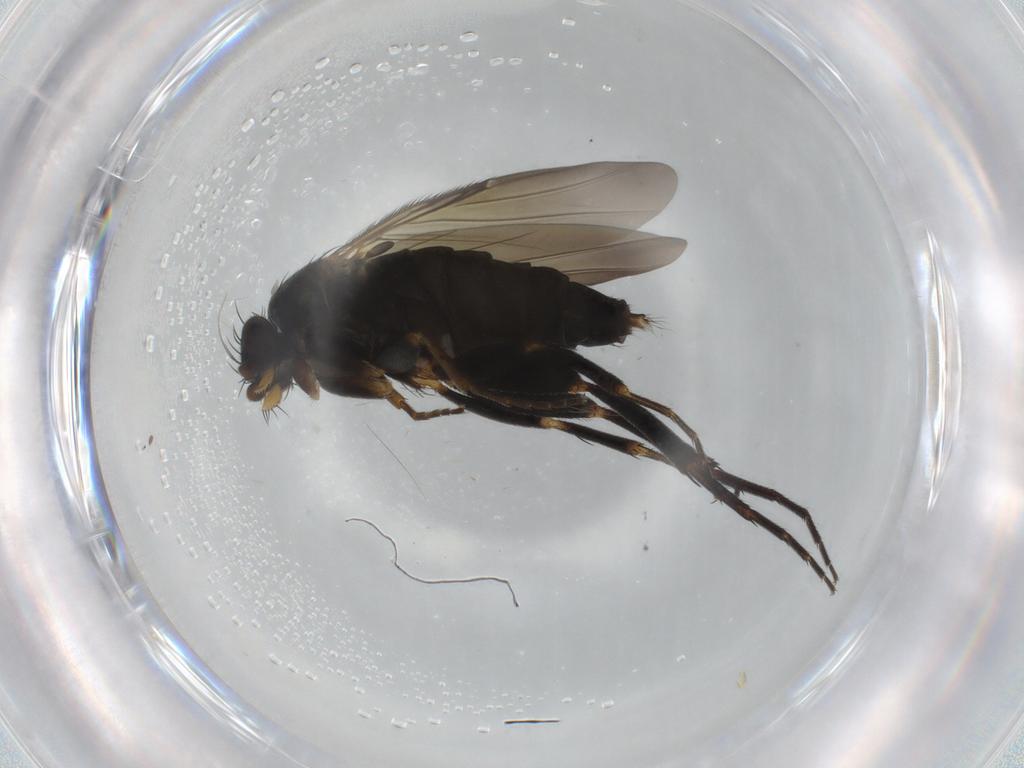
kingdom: Animalia
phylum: Arthropoda
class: Insecta
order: Diptera
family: Phoridae
